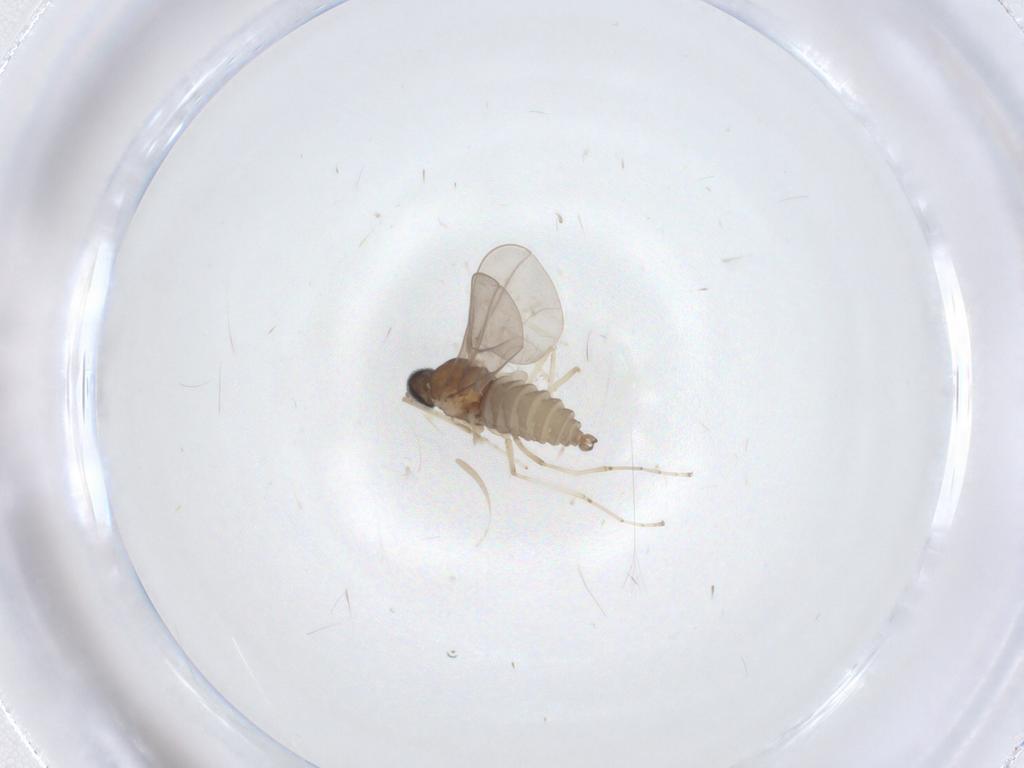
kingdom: Animalia
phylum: Arthropoda
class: Insecta
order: Diptera
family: Cecidomyiidae
